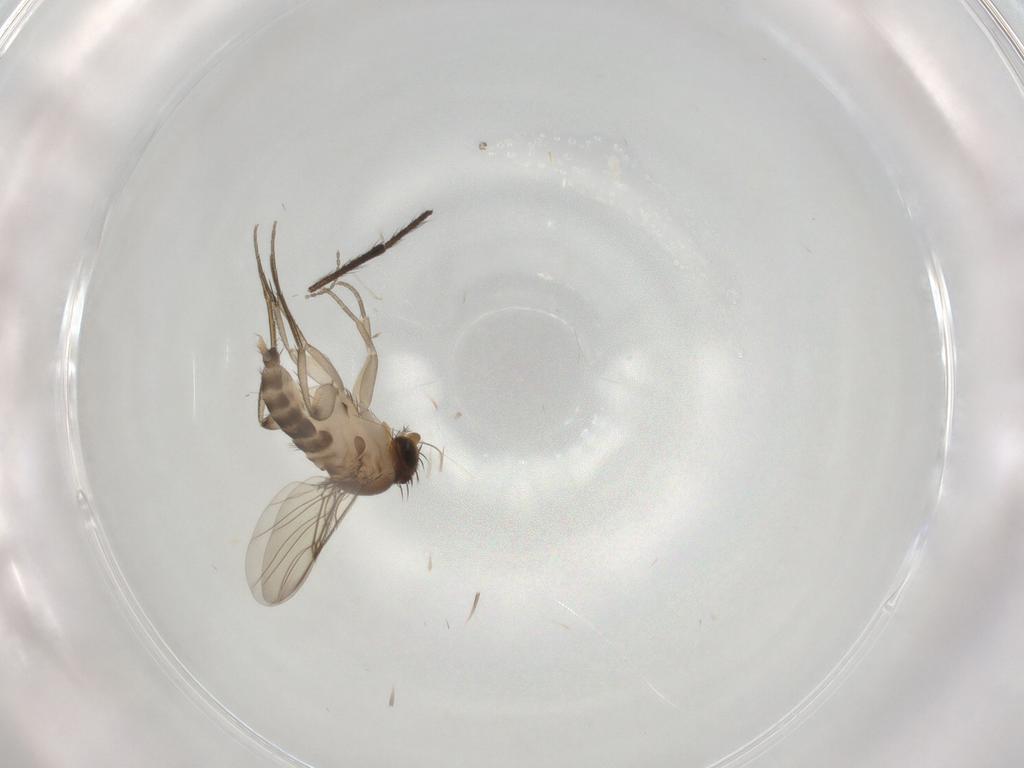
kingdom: Animalia
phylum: Arthropoda
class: Insecta
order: Diptera
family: Phoridae
